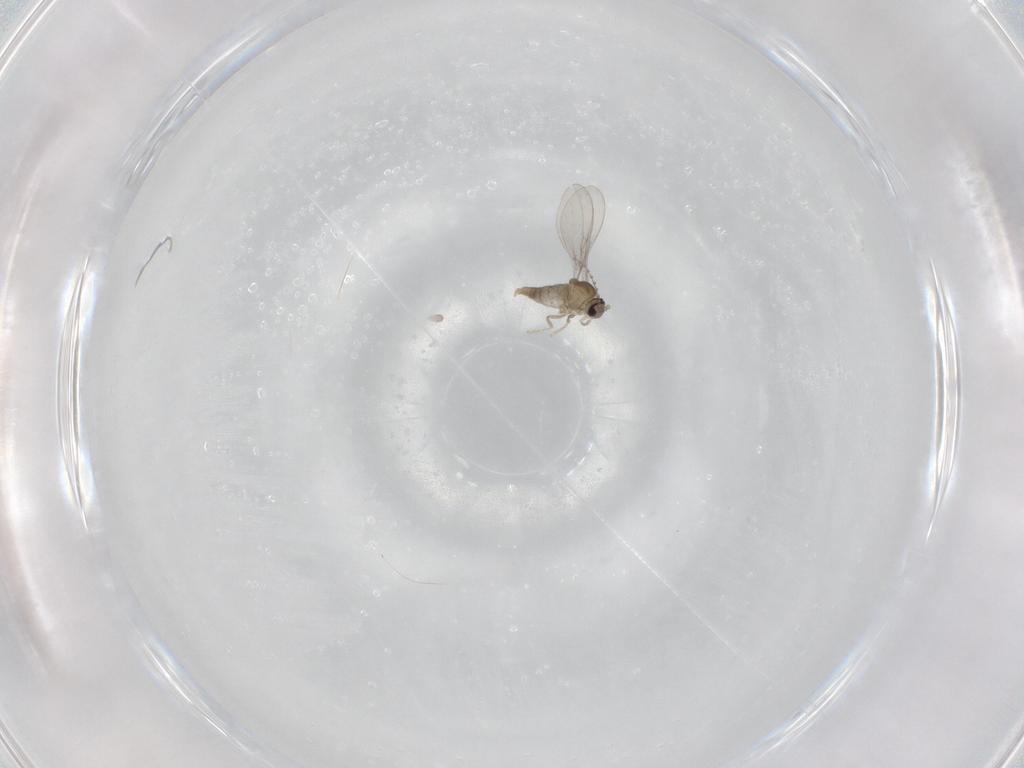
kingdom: Animalia
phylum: Arthropoda
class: Insecta
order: Diptera
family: Cecidomyiidae
